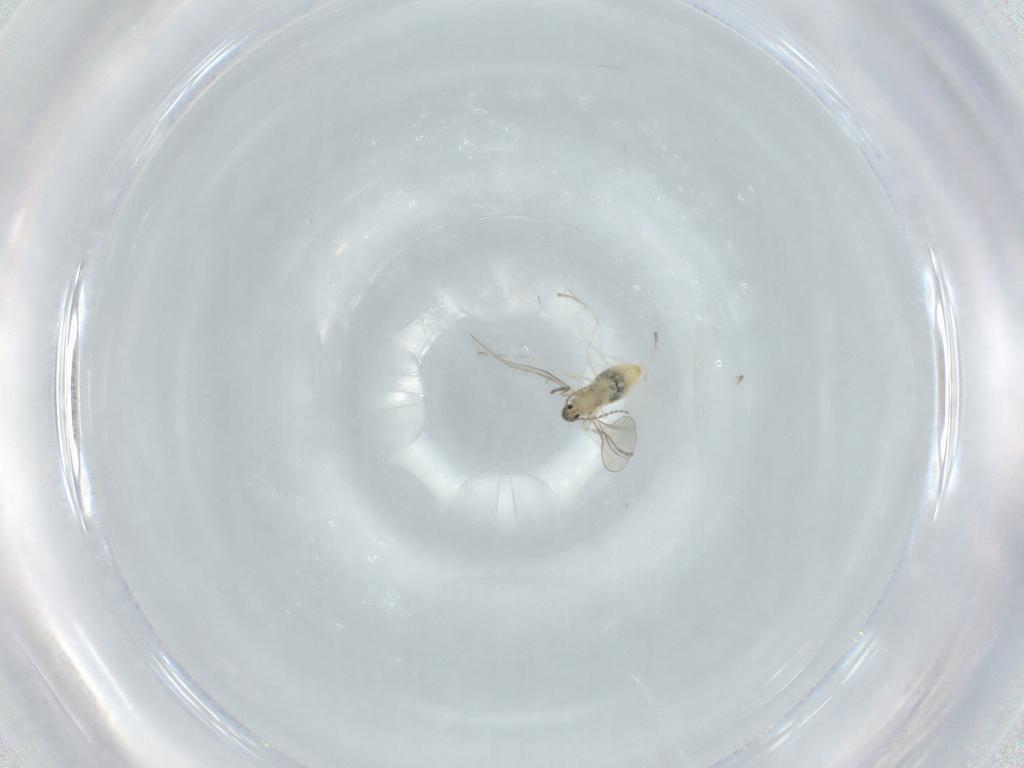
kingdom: Animalia
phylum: Arthropoda
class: Insecta
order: Diptera
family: Cecidomyiidae
